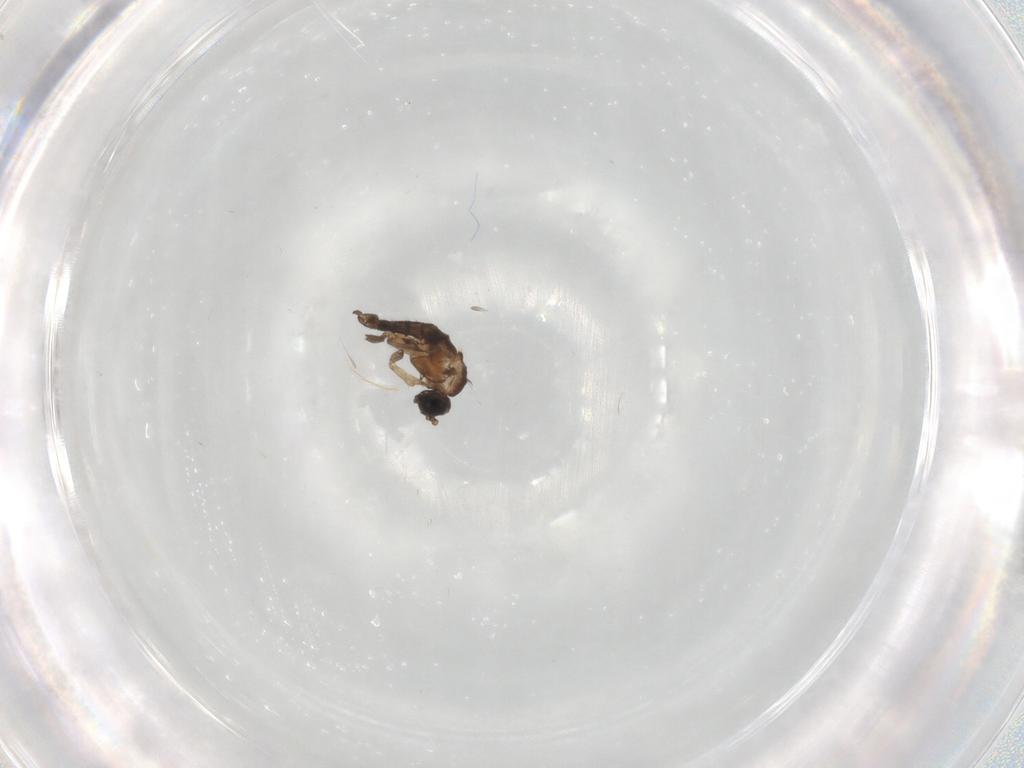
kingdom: Animalia
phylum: Arthropoda
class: Insecta
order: Diptera
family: Sciaridae
